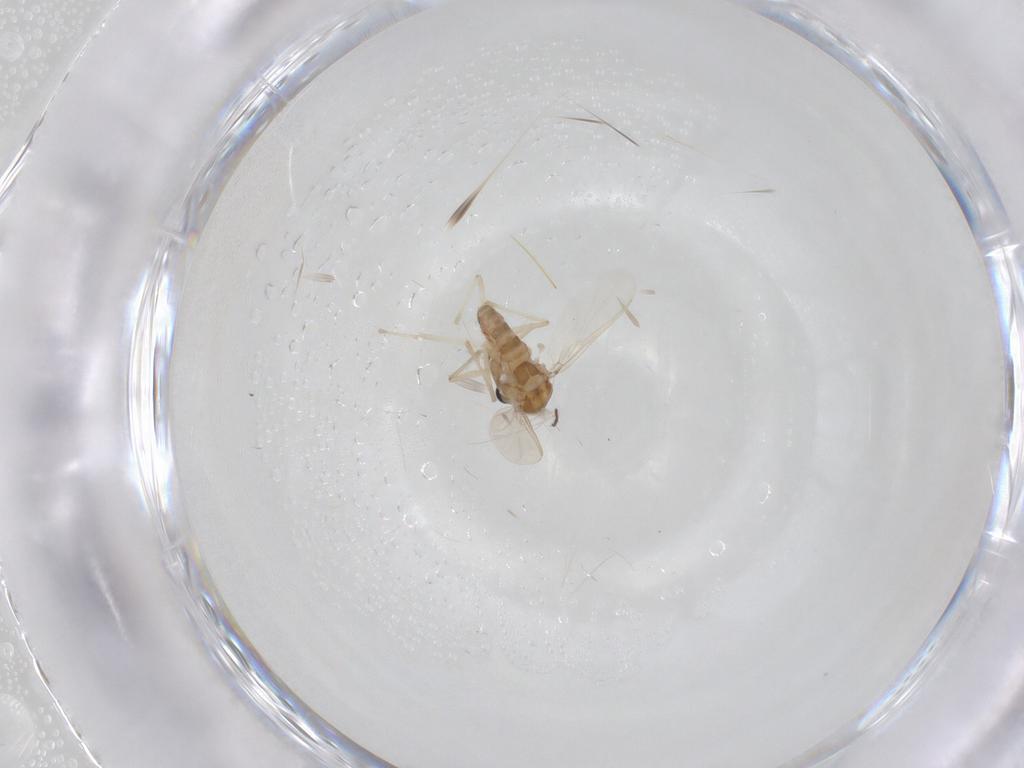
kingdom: Animalia
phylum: Arthropoda
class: Insecta
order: Diptera
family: Chironomidae
